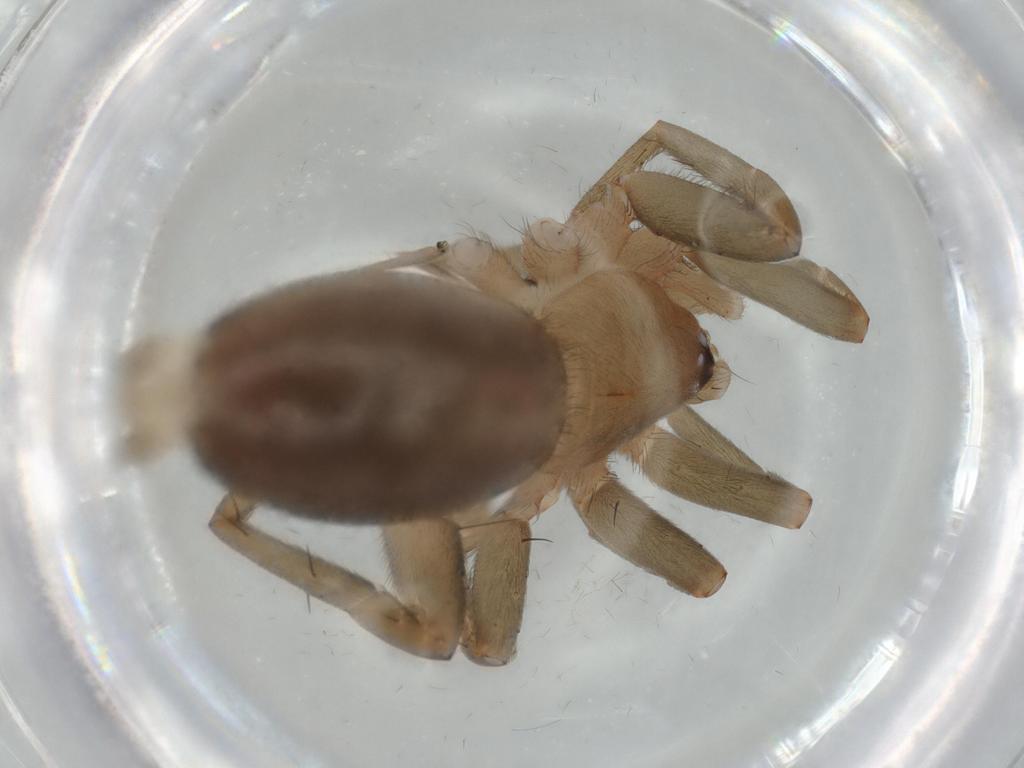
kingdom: Animalia
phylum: Arthropoda
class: Arachnida
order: Araneae
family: Gnaphosidae
